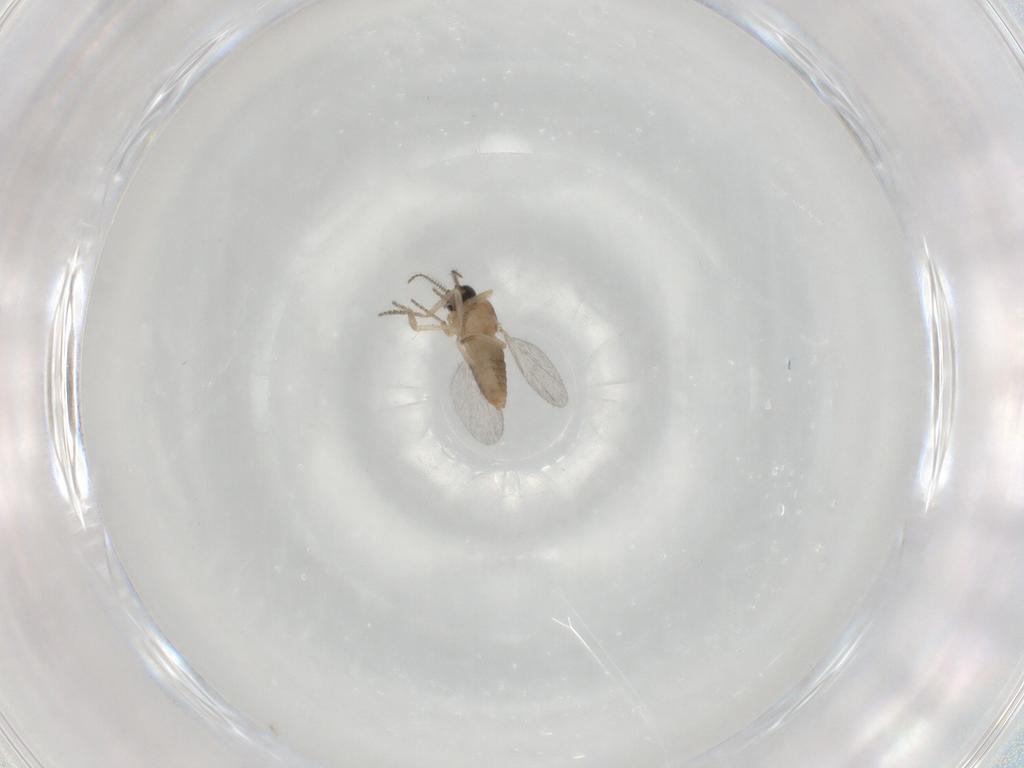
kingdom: Animalia
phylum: Arthropoda
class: Insecta
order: Diptera
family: Ceratopogonidae
